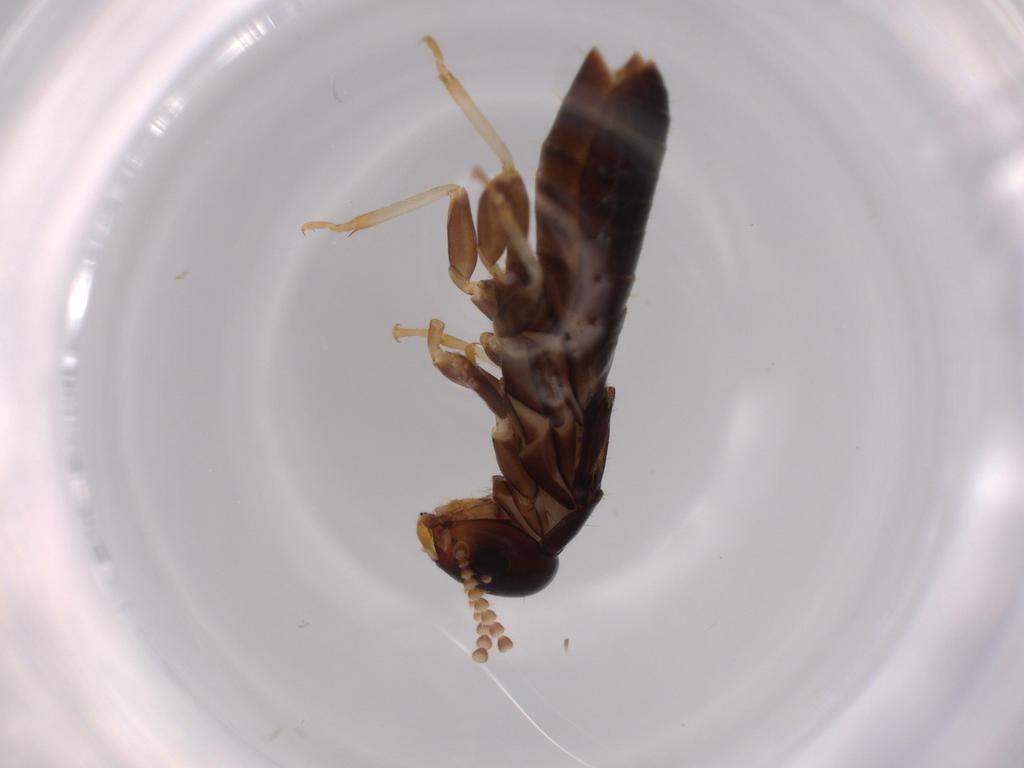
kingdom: Animalia
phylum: Arthropoda
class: Insecta
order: Blattodea
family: Kalotermitidae
